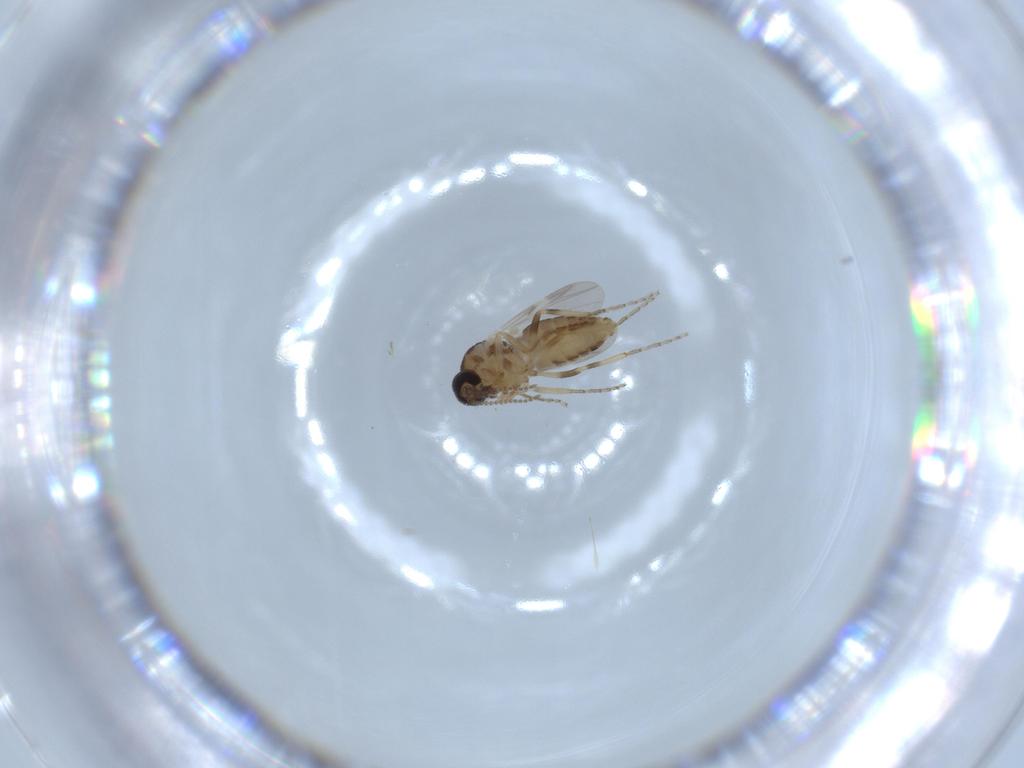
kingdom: Animalia
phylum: Arthropoda
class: Insecta
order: Diptera
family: Ceratopogonidae
